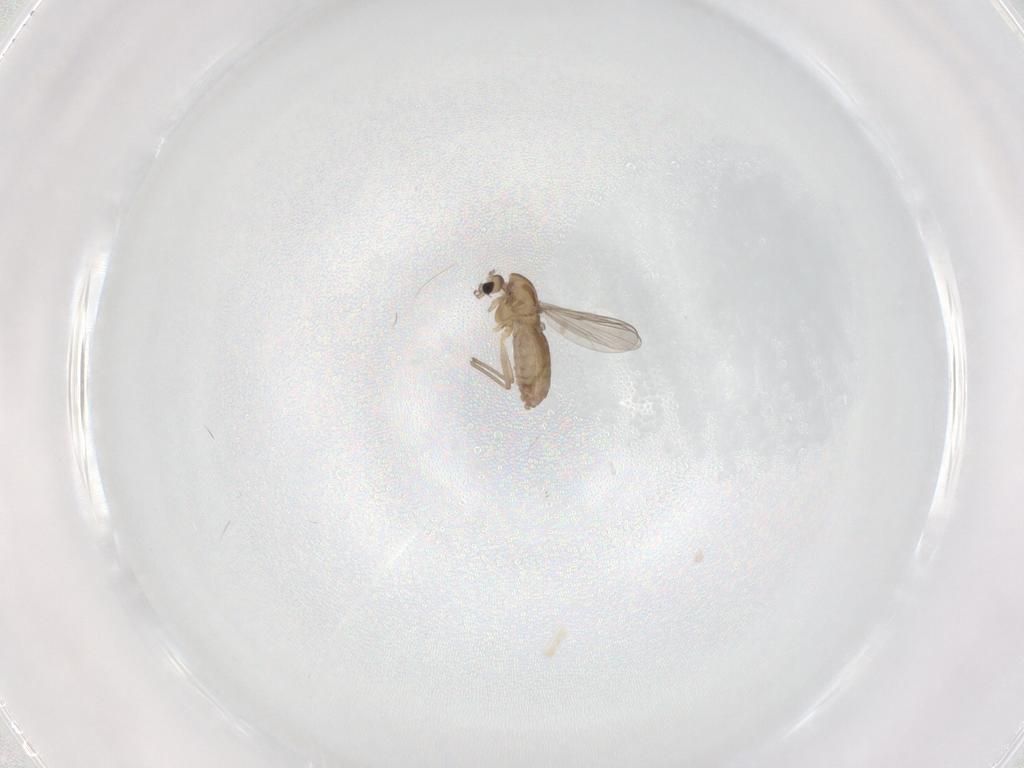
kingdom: Animalia
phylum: Arthropoda
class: Insecta
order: Diptera
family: Chironomidae
